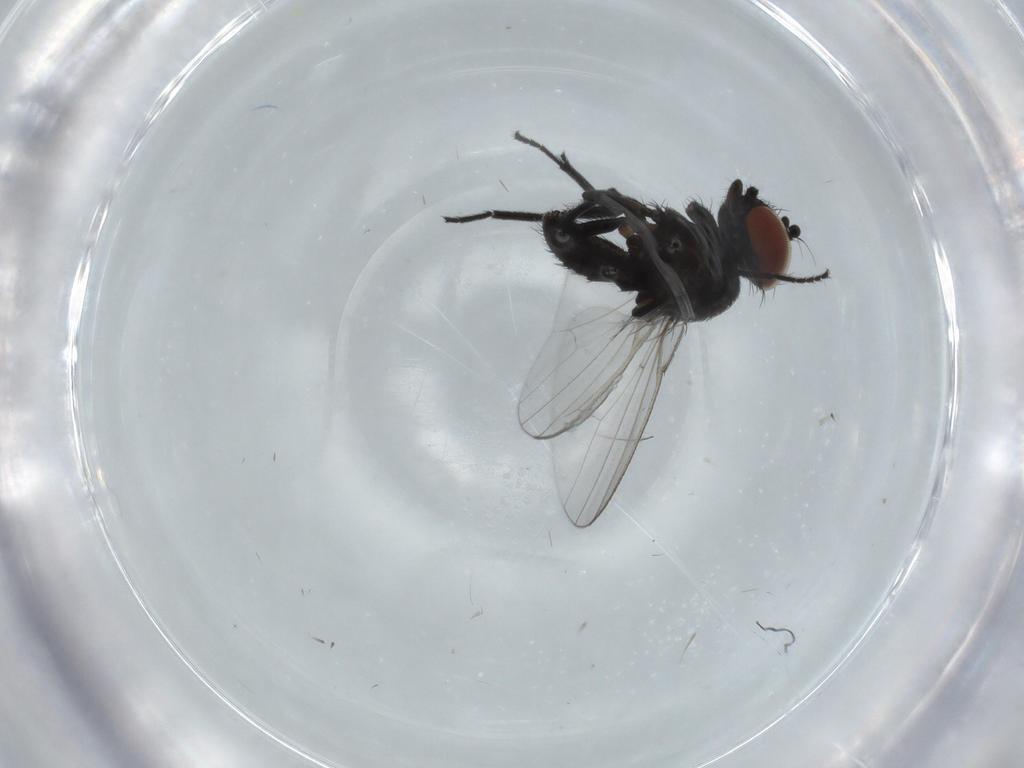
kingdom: Animalia
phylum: Arthropoda
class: Insecta
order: Diptera
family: Milichiidae
